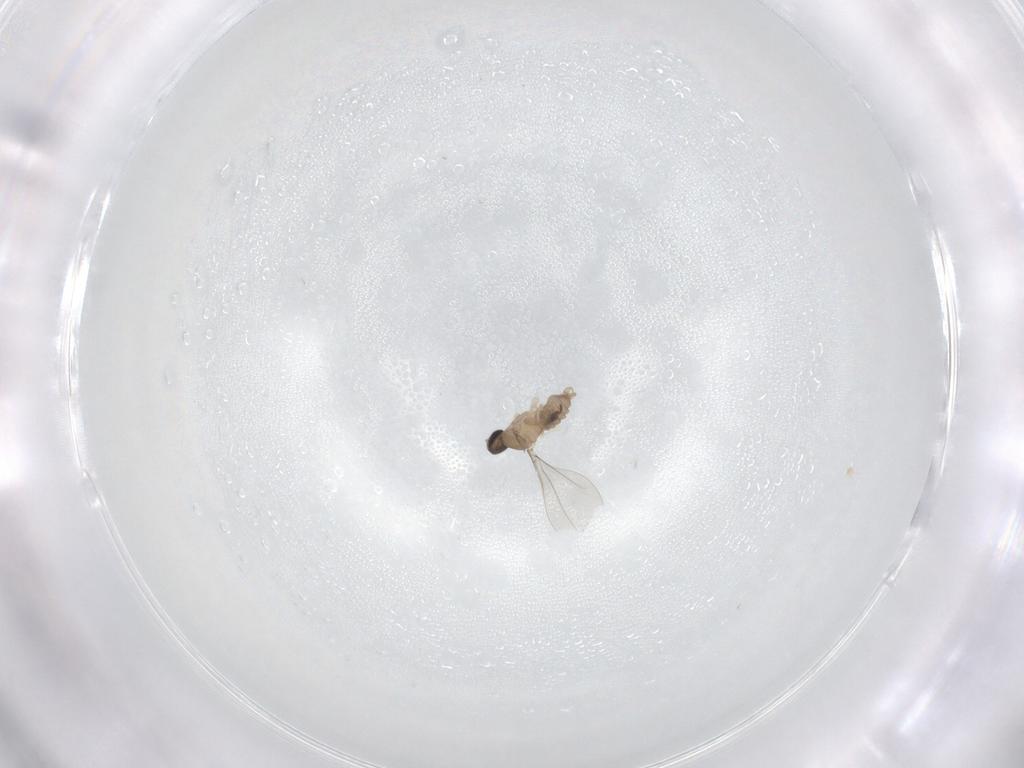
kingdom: Animalia
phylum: Arthropoda
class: Insecta
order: Diptera
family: Cecidomyiidae
